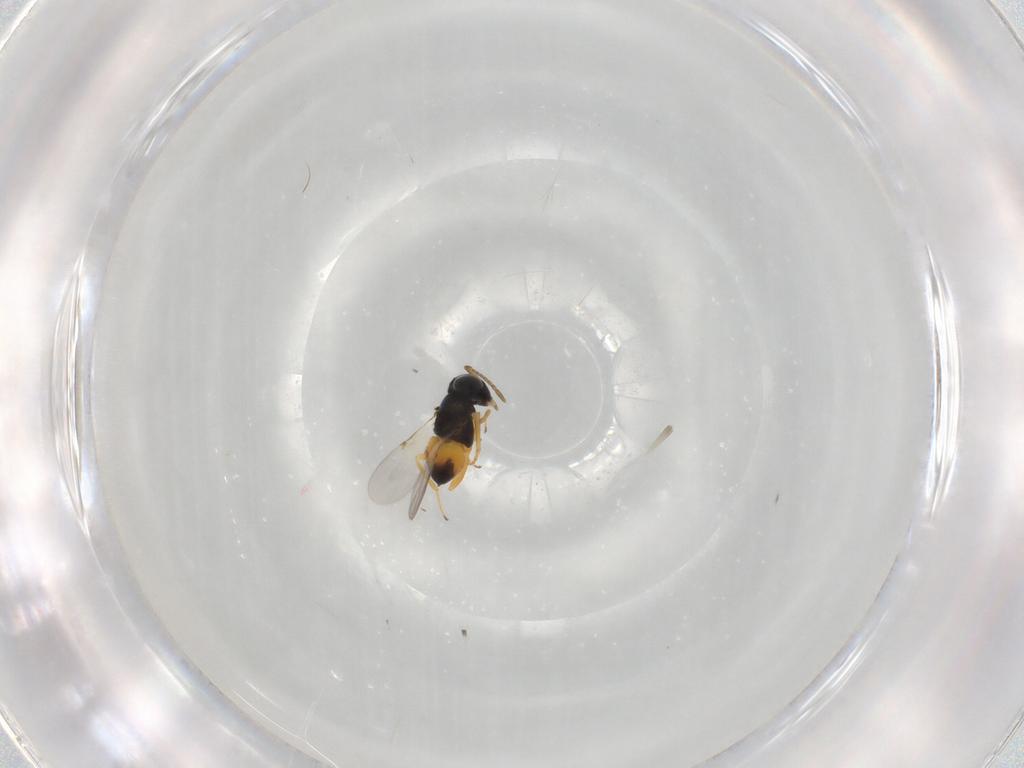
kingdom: Animalia
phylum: Arthropoda
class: Insecta
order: Hymenoptera
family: Encyrtidae
